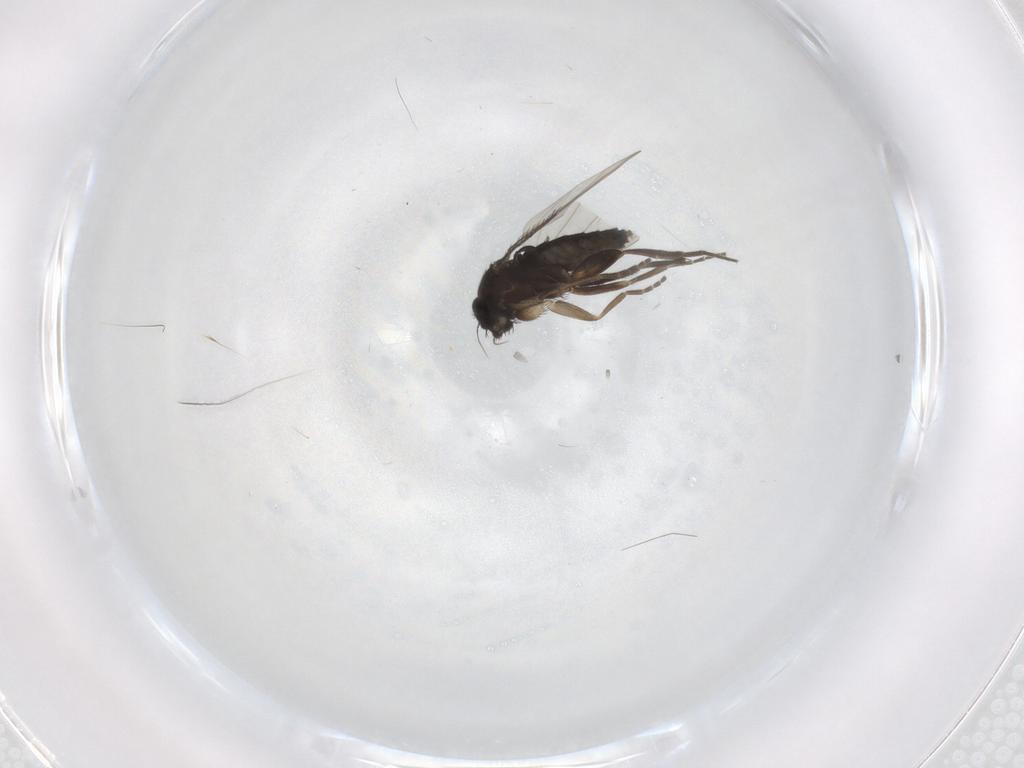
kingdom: Animalia
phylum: Arthropoda
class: Insecta
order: Diptera
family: Phoridae
